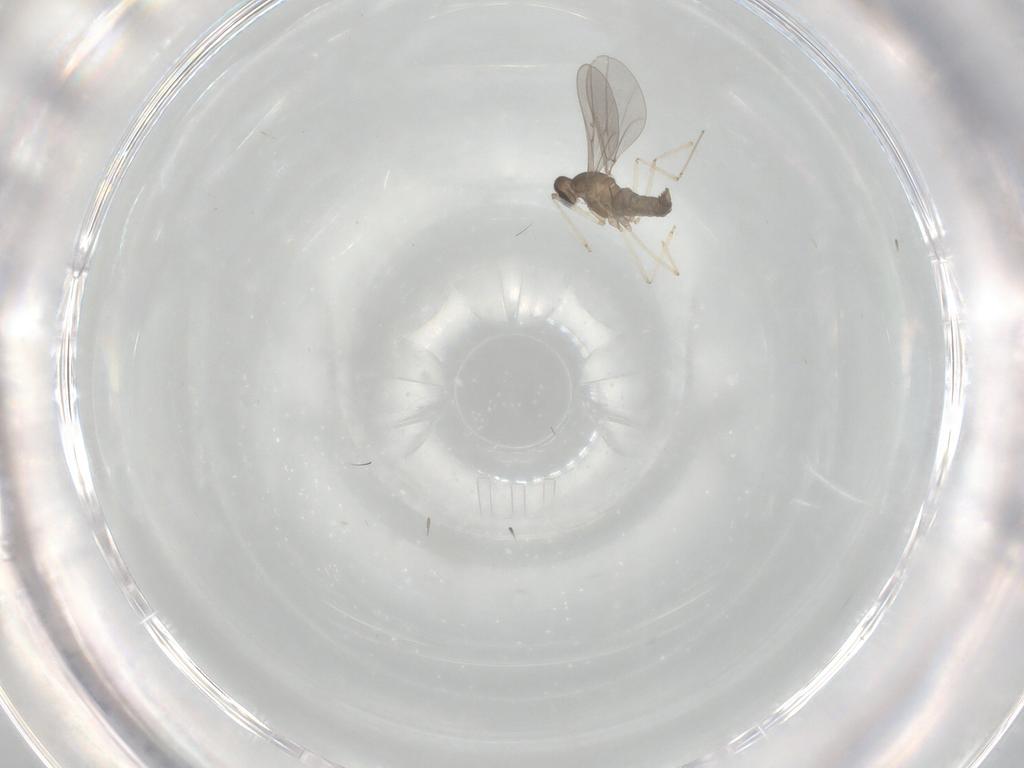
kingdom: Animalia
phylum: Arthropoda
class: Insecta
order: Diptera
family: Cecidomyiidae
